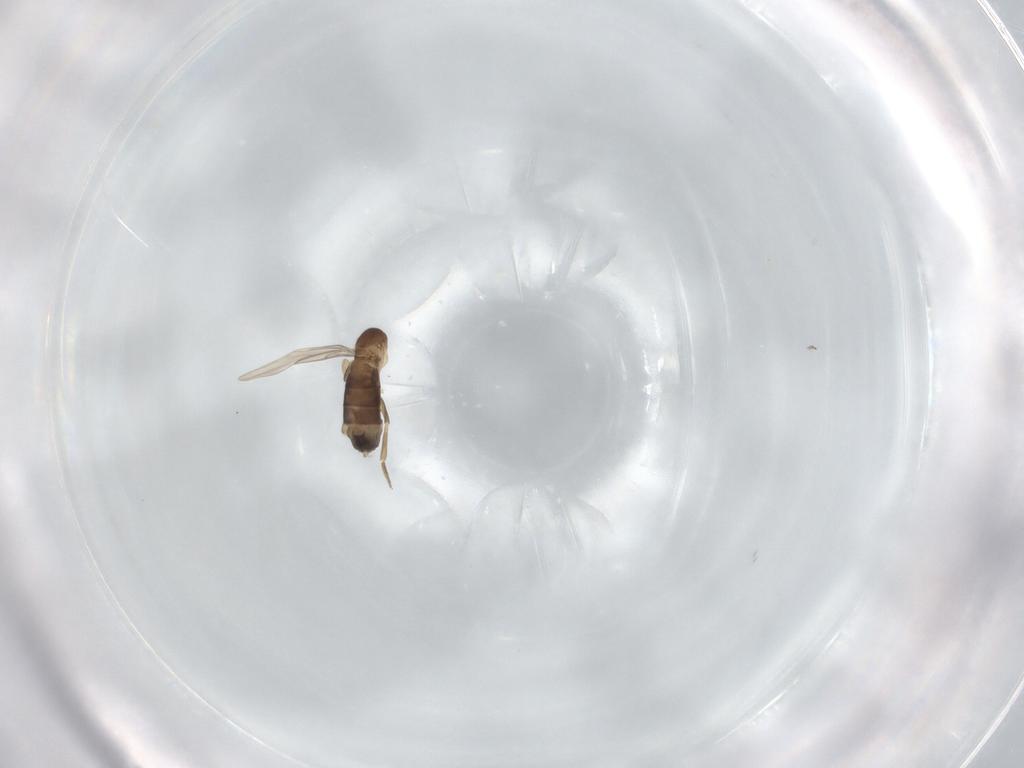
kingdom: Animalia
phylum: Arthropoda
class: Insecta
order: Diptera
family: Phoridae
